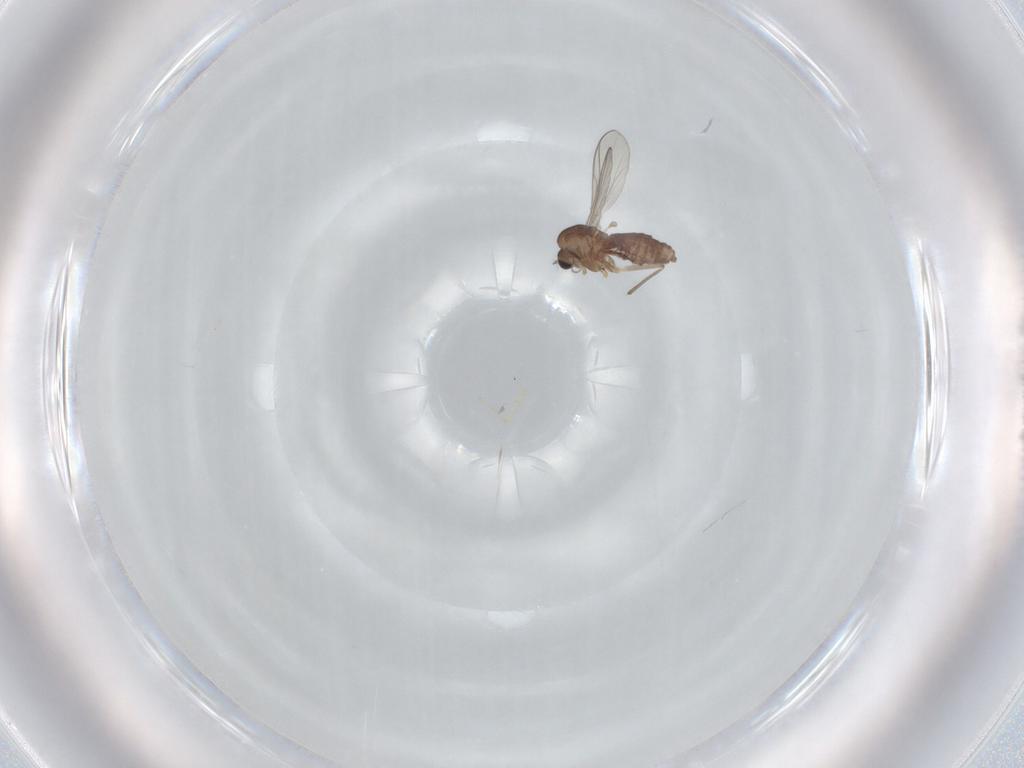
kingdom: Animalia
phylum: Arthropoda
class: Insecta
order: Diptera
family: Chironomidae
